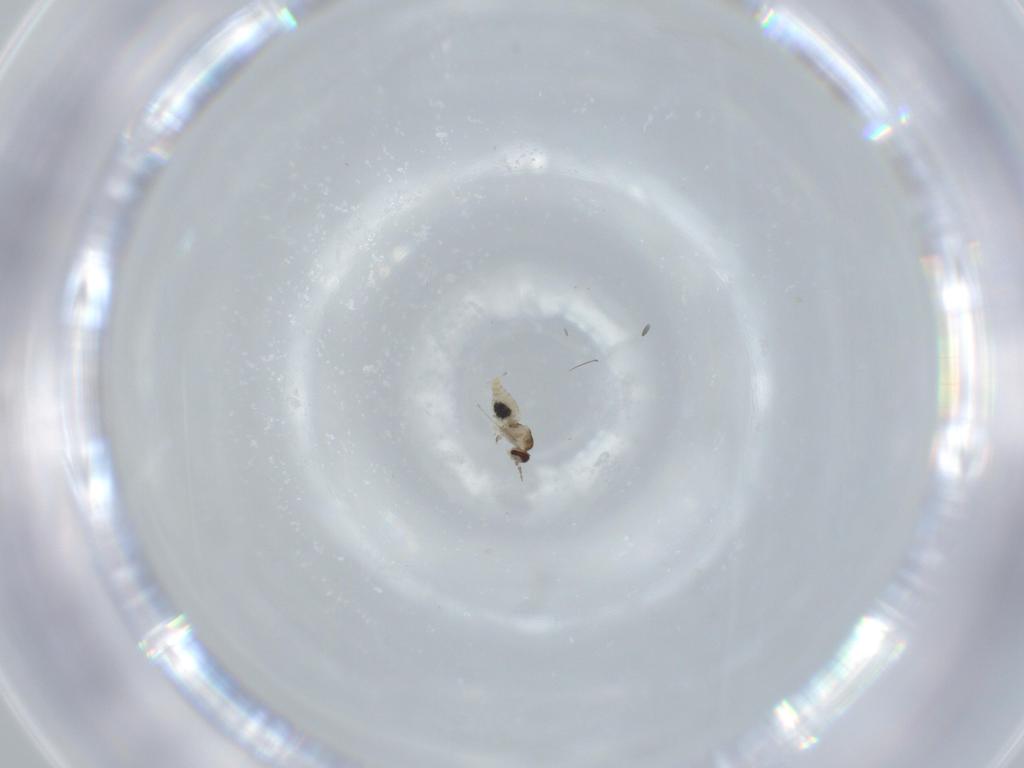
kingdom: Animalia
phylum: Arthropoda
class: Insecta
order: Diptera
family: Cecidomyiidae
